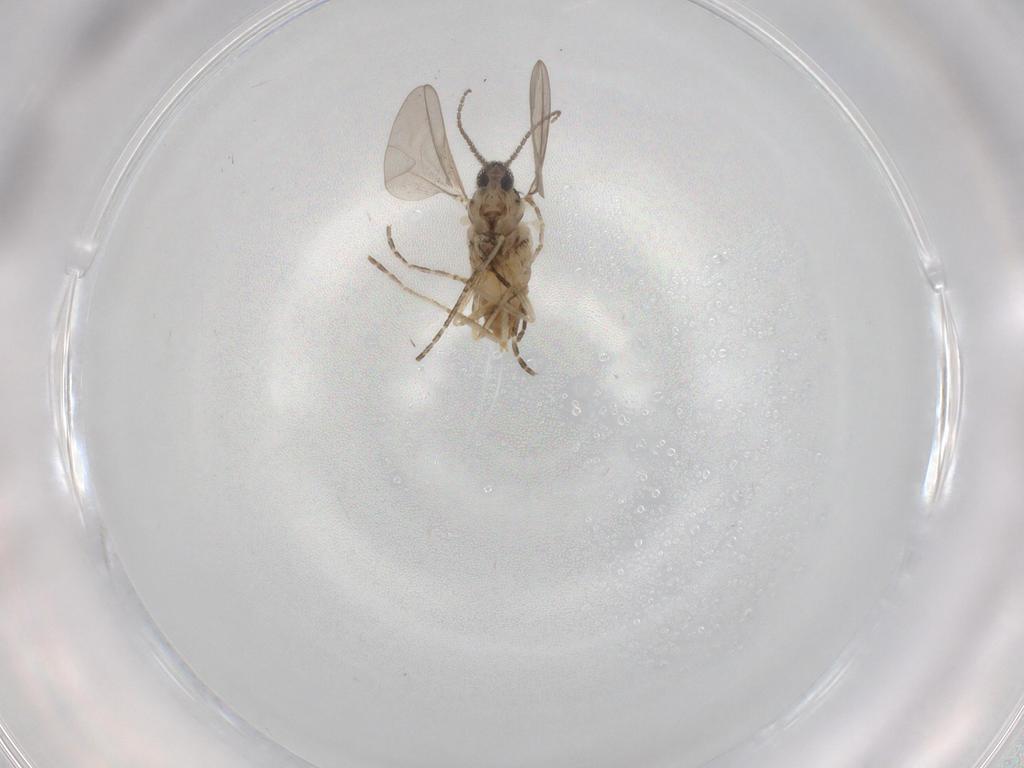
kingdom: Animalia
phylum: Arthropoda
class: Insecta
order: Diptera
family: Cecidomyiidae
